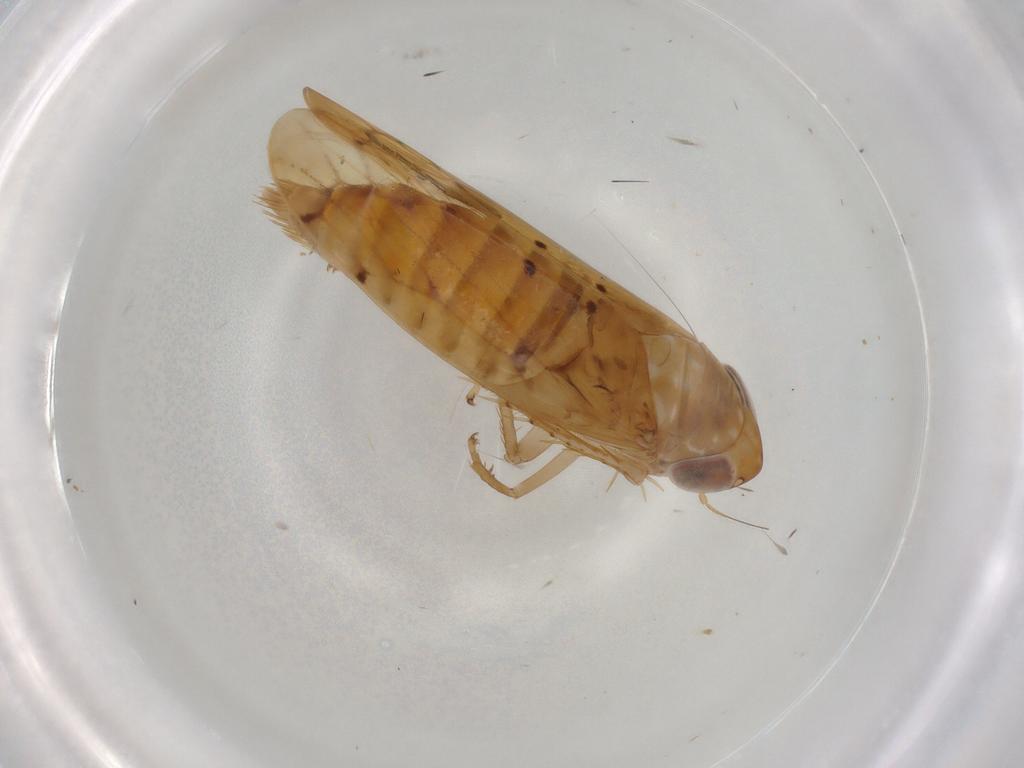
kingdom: Animalia
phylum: Arthropoda
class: Insecta
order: Hemiptera
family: Cicadellidae
